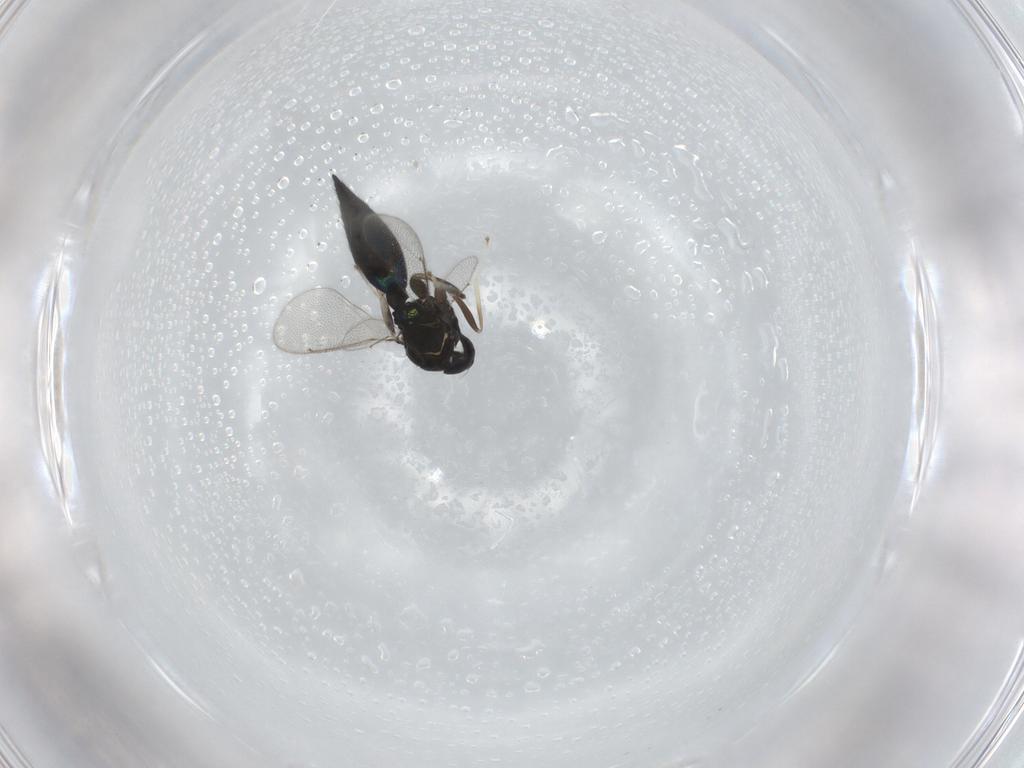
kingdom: Animalia
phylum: Arthropoda
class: Insecta
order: Hymenoptera
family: Eulophidae
